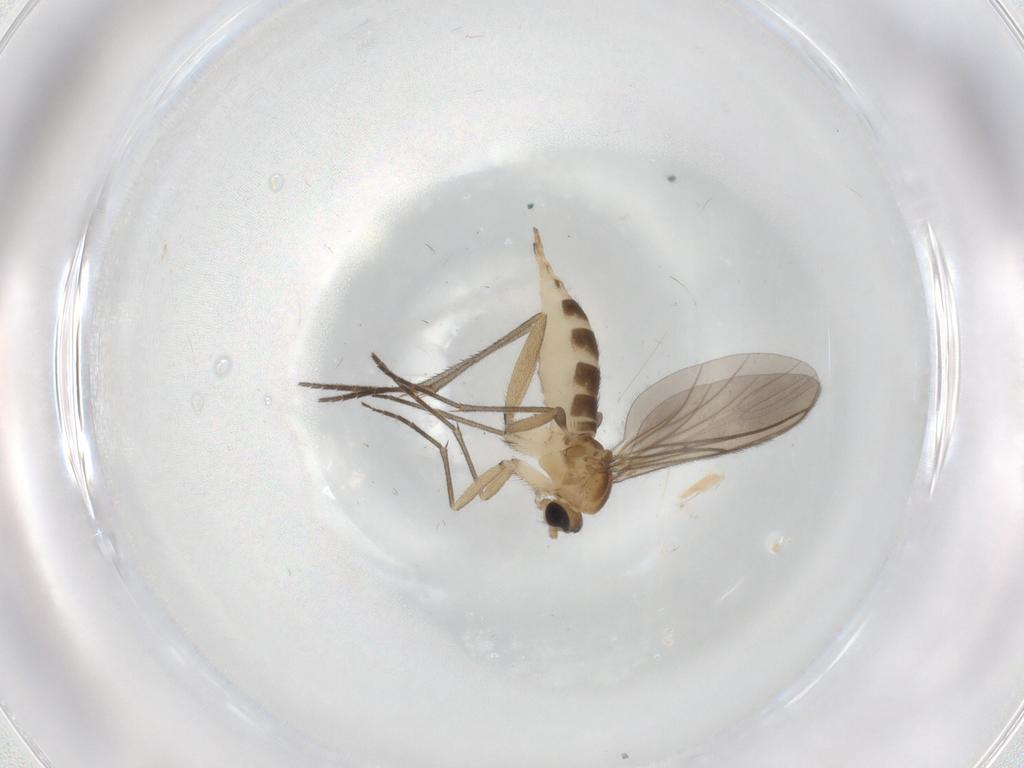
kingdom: Animalia
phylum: Arthropoda
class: Insecta
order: Diptera
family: Sciaridae
